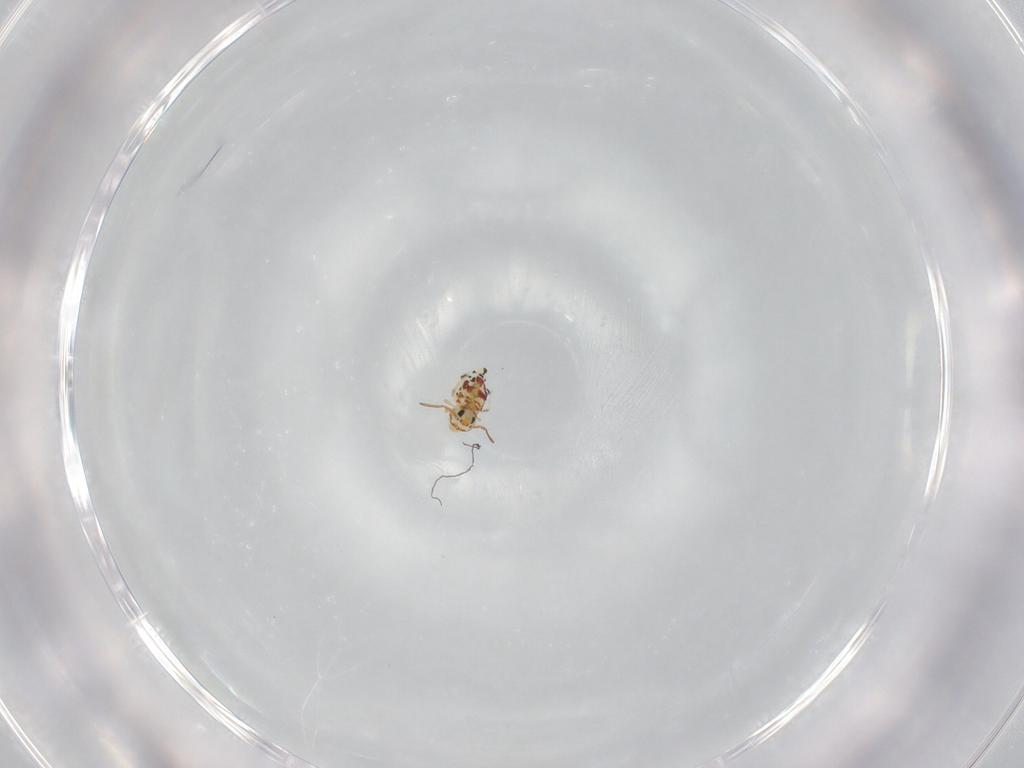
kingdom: Animalia
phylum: Arthropoda
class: Collembola
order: Symphypleona
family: Bourletiellidae
